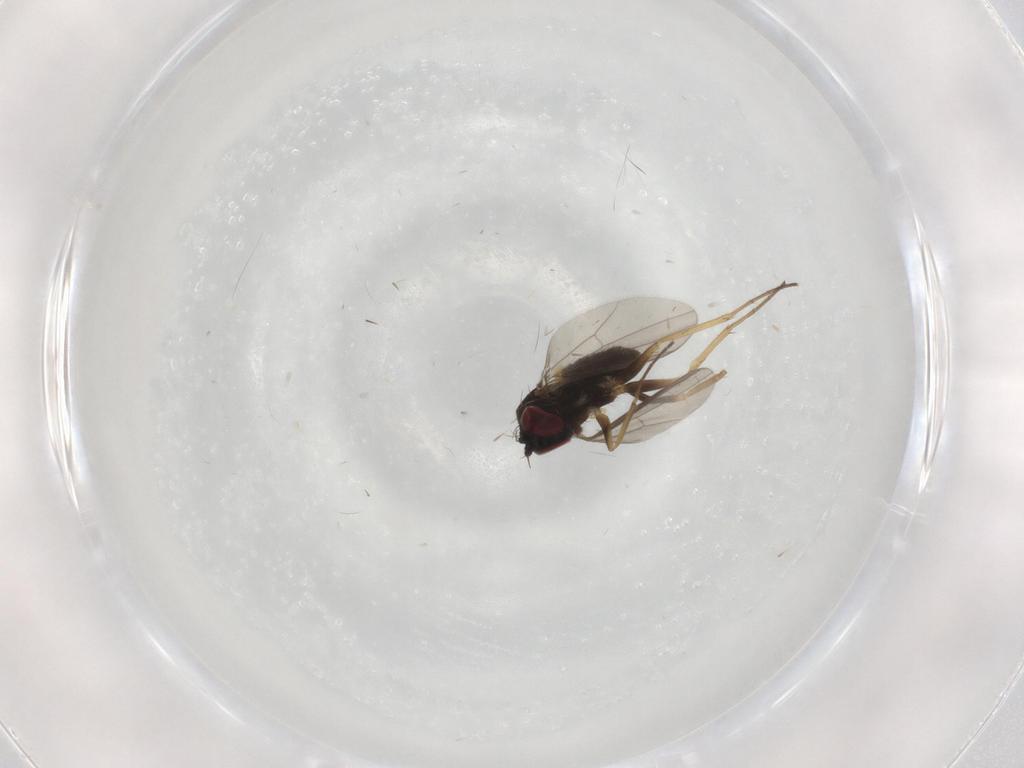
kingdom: Animalia
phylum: Arthropoda
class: Insecta
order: Diptera
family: Dolichopodidae
